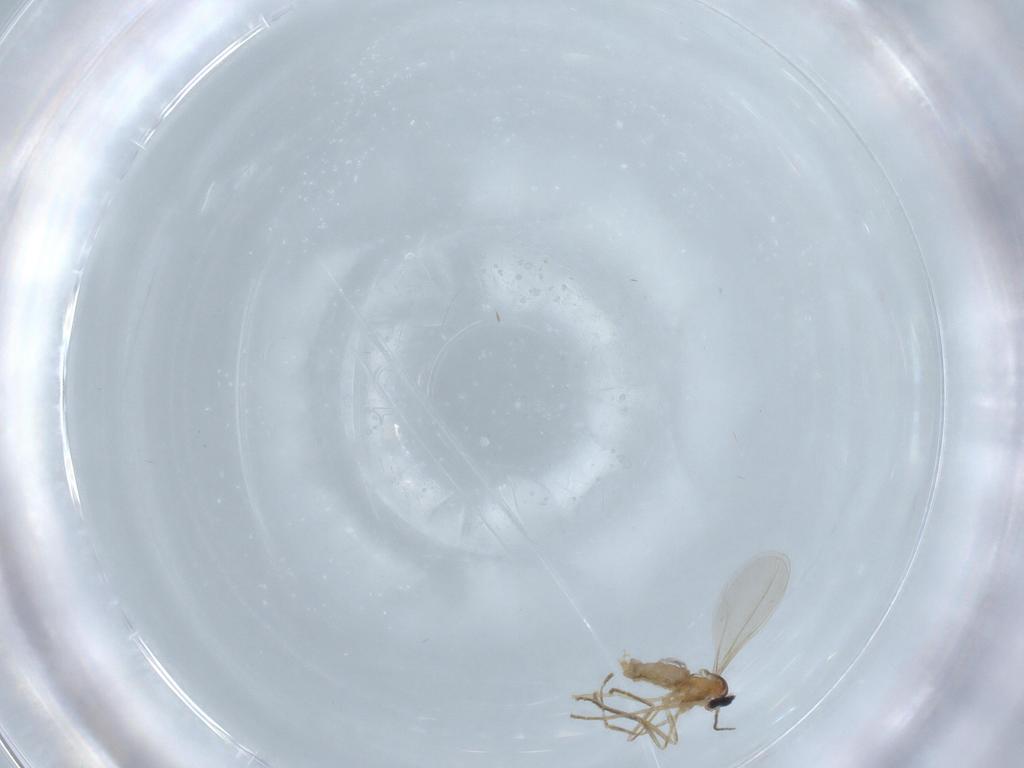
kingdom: Animalia
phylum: Arthropoda
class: Insecta
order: Diptera
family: Cecidomyiidae
